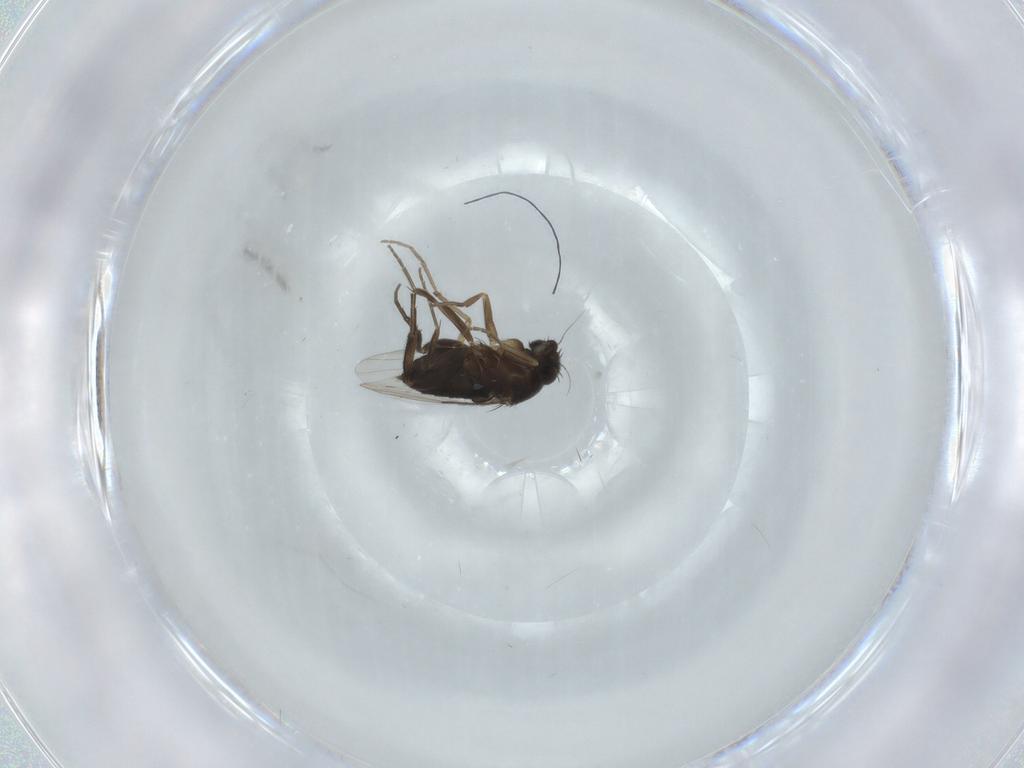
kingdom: Animalia
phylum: Arthropoda
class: Insecta
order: Diptera
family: Phoridae
